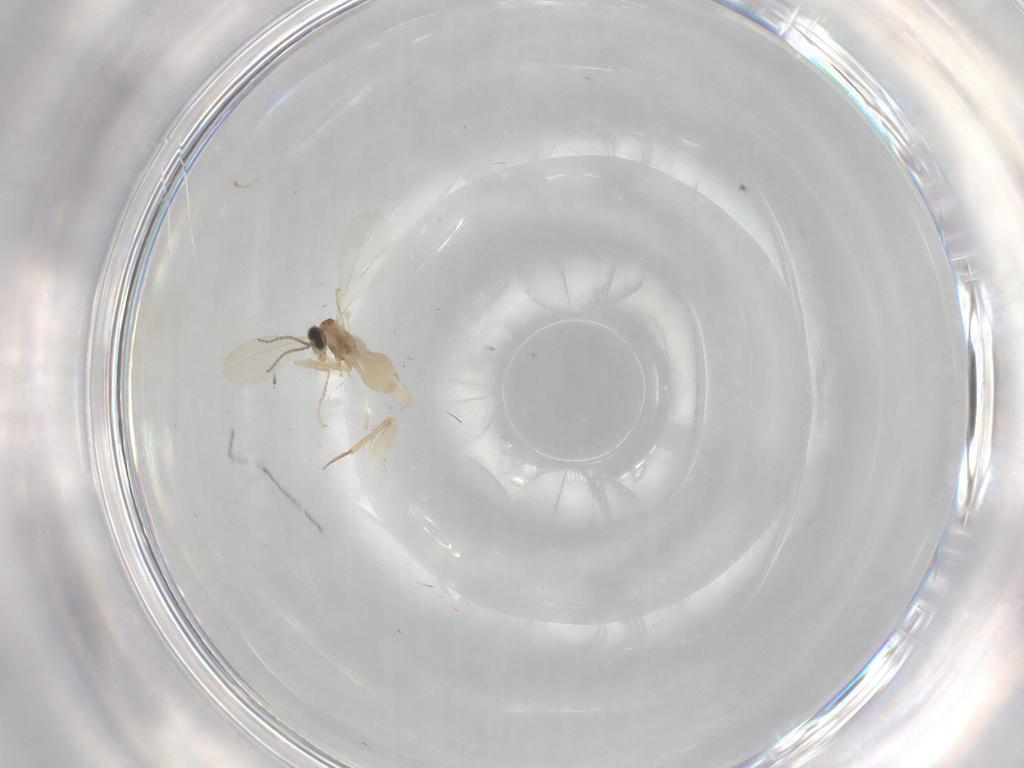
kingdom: Animalia
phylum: Arthropoda
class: Insecta
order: Diptera
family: Cecidomyiidae
